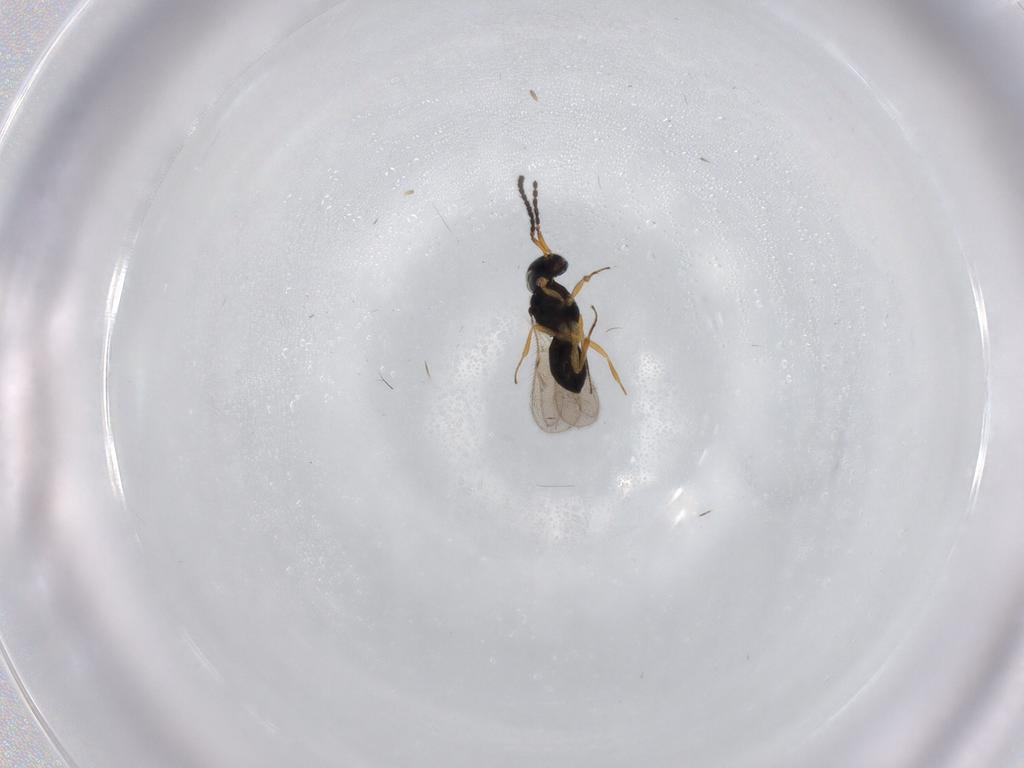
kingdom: Animalia
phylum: Arthropoda
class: Insecta
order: Hymenoptera
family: Scelionidae
